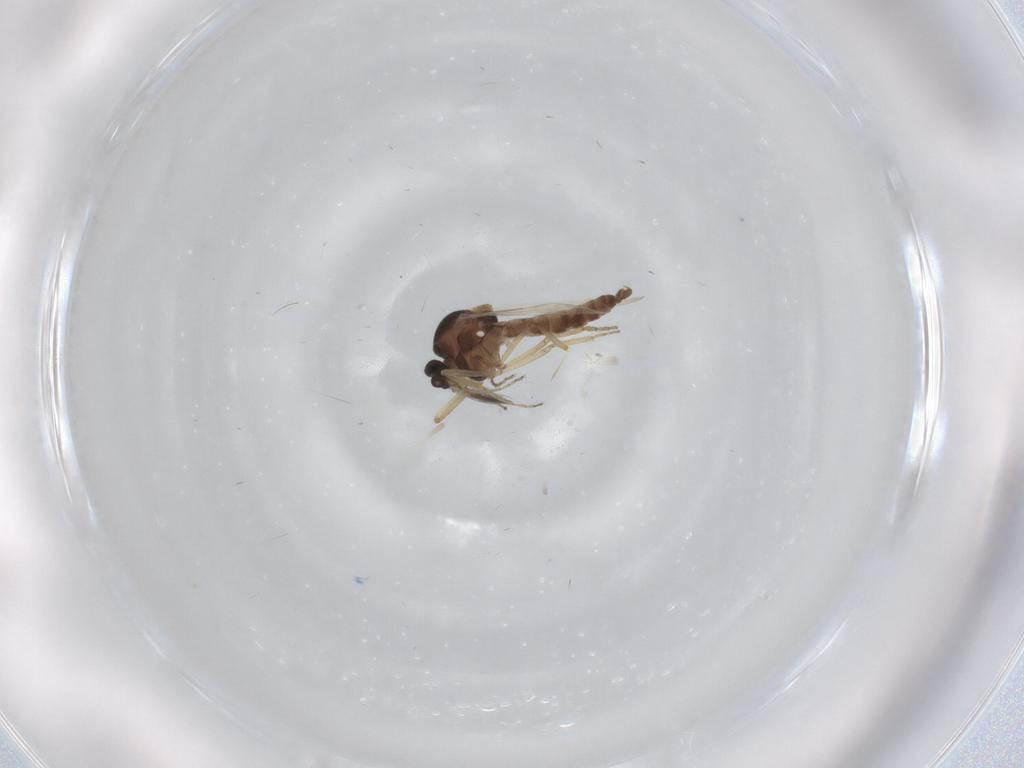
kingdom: Animalia
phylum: Arthropoda
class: Insecta
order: Diptera
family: Ceratopogonidae
